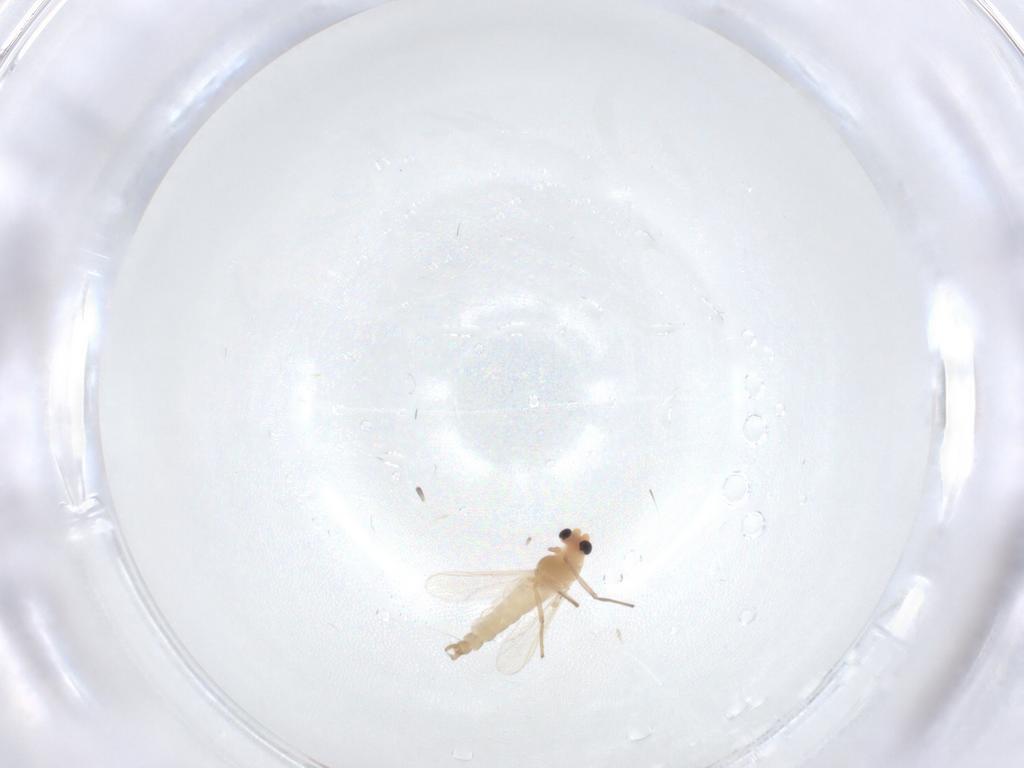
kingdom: Animalia
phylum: Arthropoda
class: Insecta
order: Diptera
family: Chironomidae
